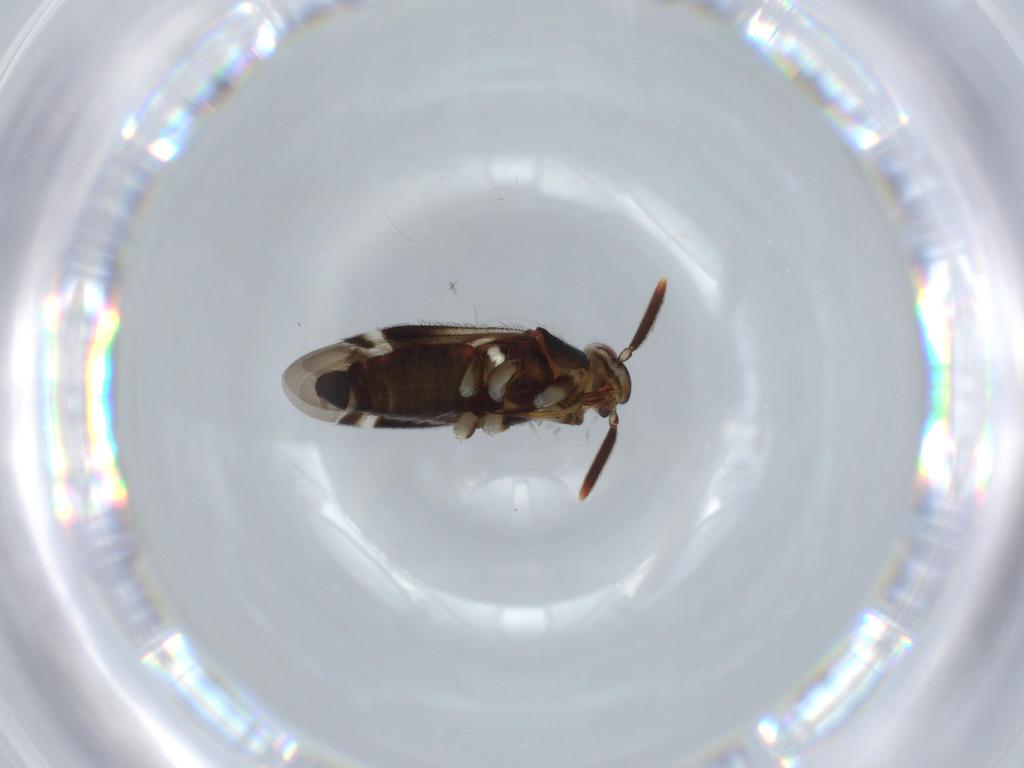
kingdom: Animalia
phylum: Arthropoda
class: Insecta
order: Hemiptera
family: Miridae
